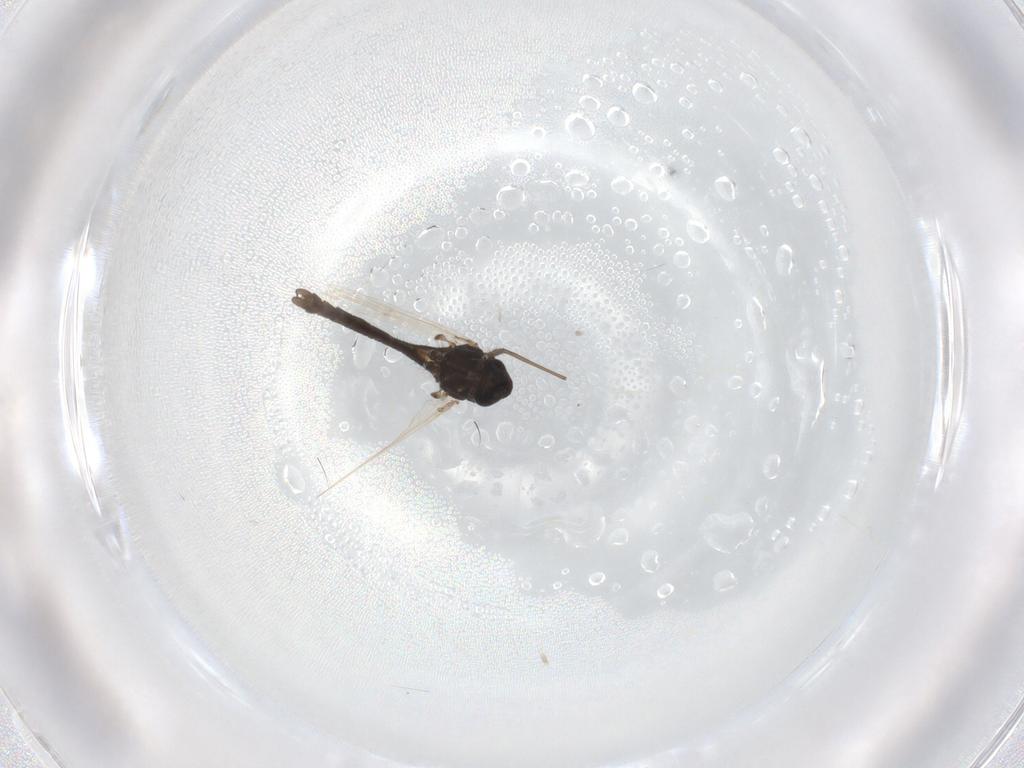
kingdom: Animalia
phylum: Arthropoda
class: Insecta
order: Diptera
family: Chironomidae
